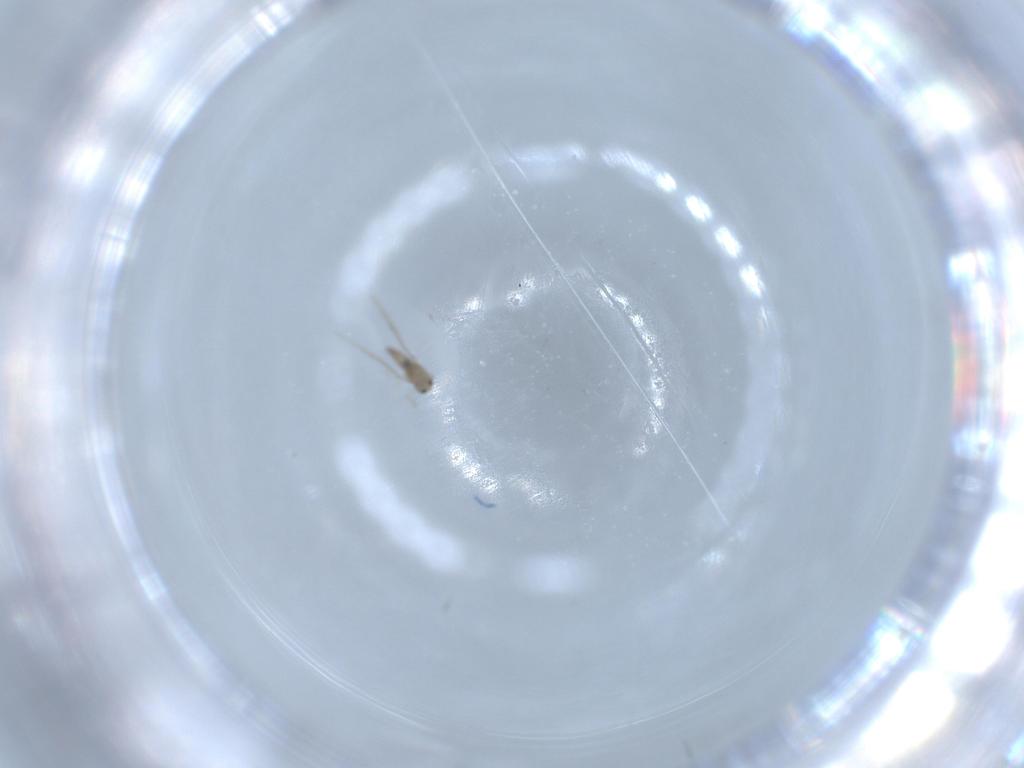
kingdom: Animalia
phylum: Arthropoda
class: Insecta
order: Diptera
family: Cecidomyiidae
